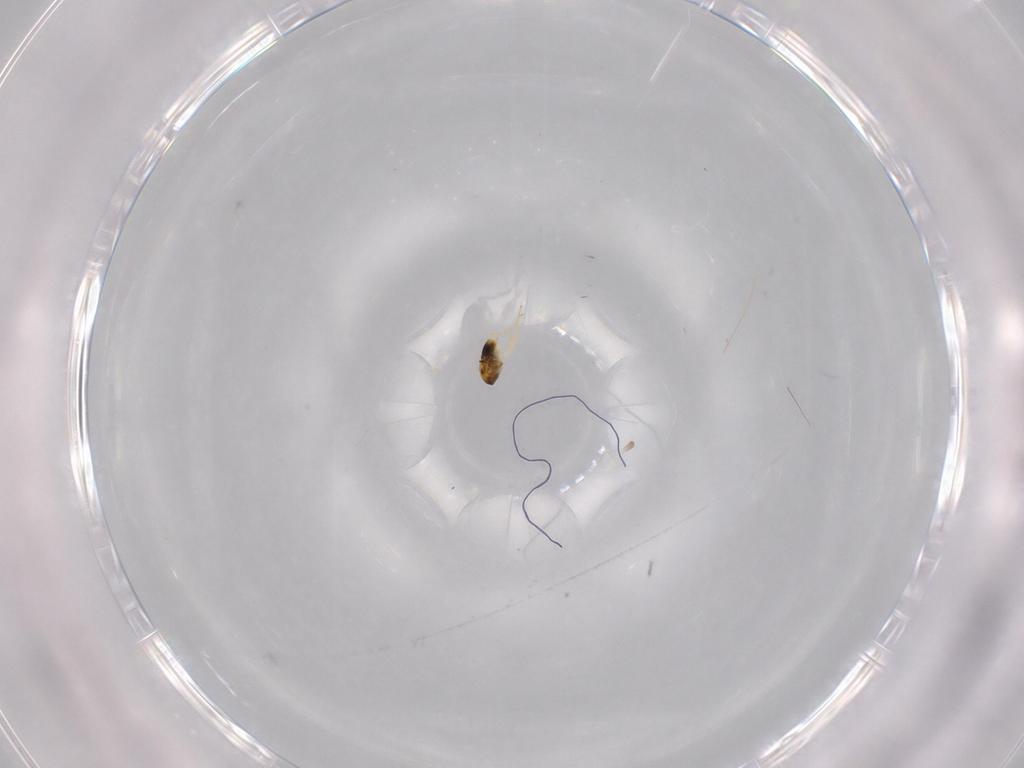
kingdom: Animalia
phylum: Arthropoda
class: Insecta
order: Hymenoptera
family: Aphelinidae
